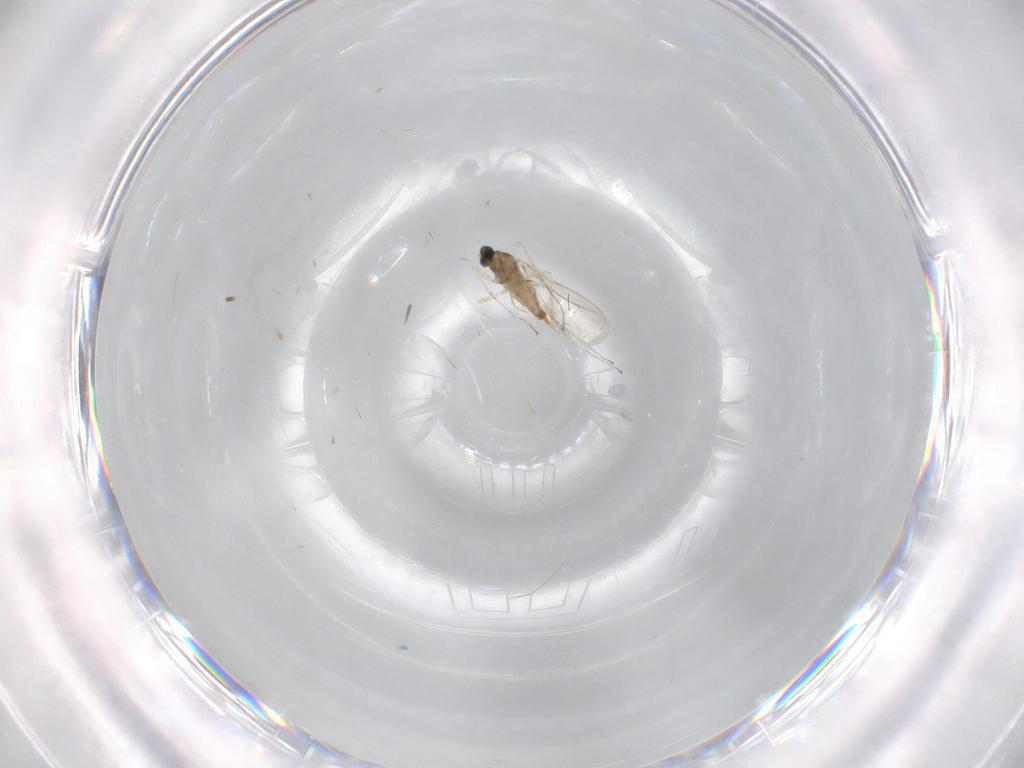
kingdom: Animalia
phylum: Arthropoda
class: Insecta
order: Diptera
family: Cecidomyiidae
